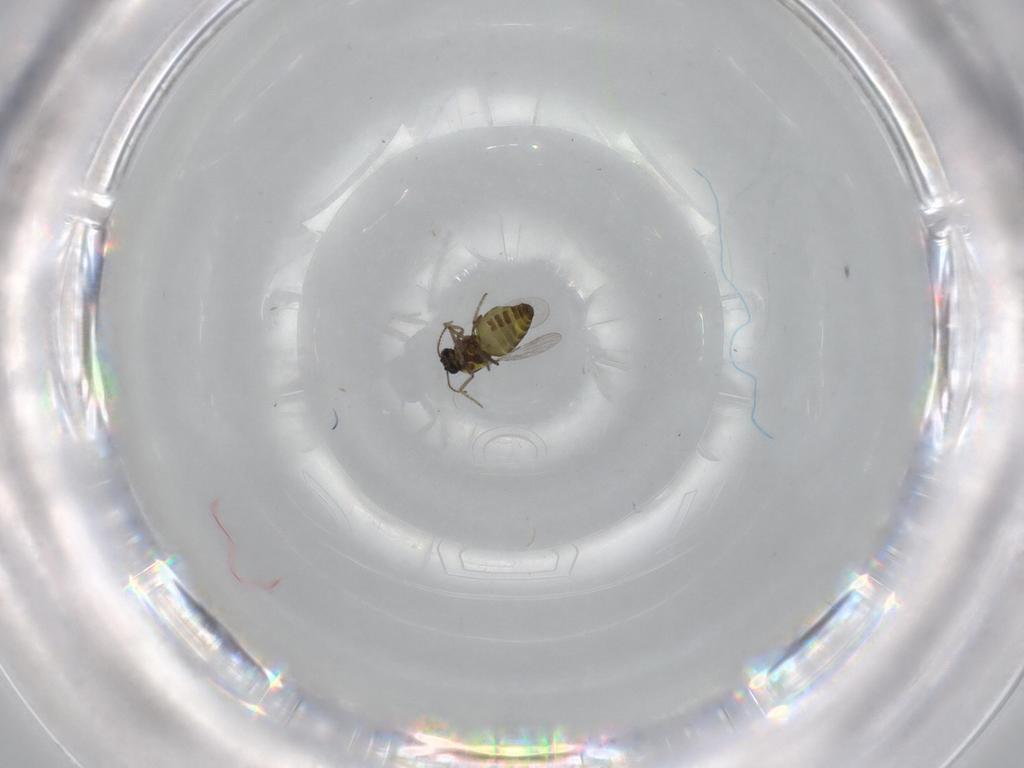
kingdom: Animalia
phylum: Arthropoda
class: Insecta
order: Diptera
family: Ceratopogonidae
